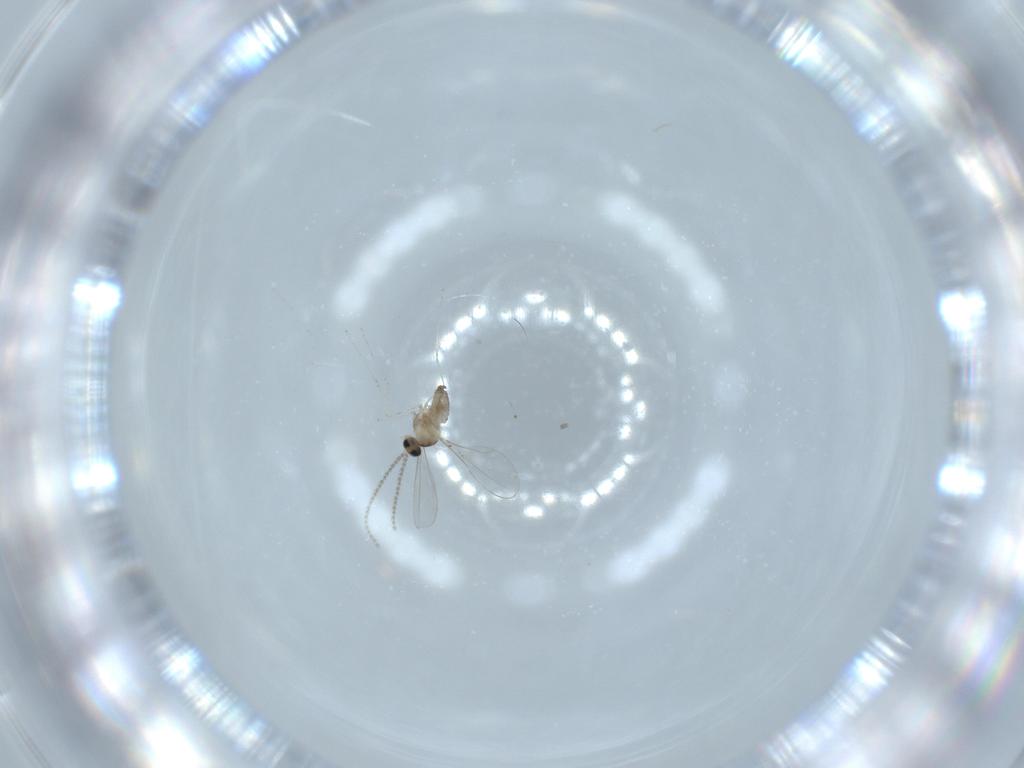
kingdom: Animalia
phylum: Arthropoda
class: Insecta
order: Diptera
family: Cecidomyiidae
